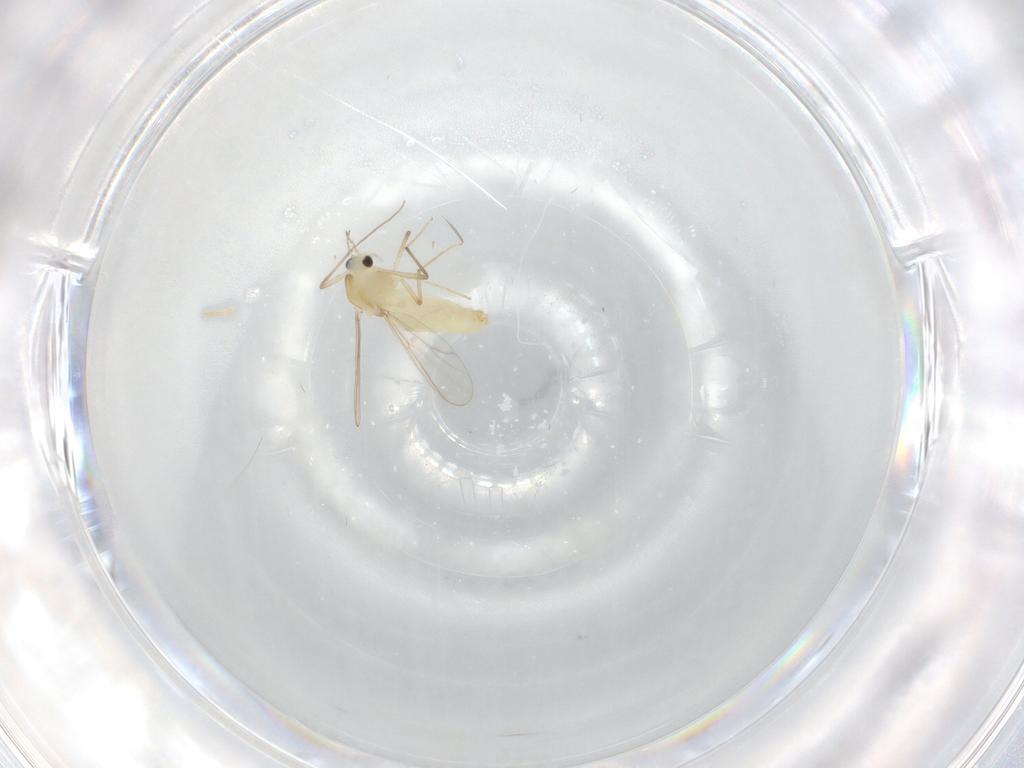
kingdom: Animalia
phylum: Arthropoda
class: Insecta
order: Diptera
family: Chironomidae
